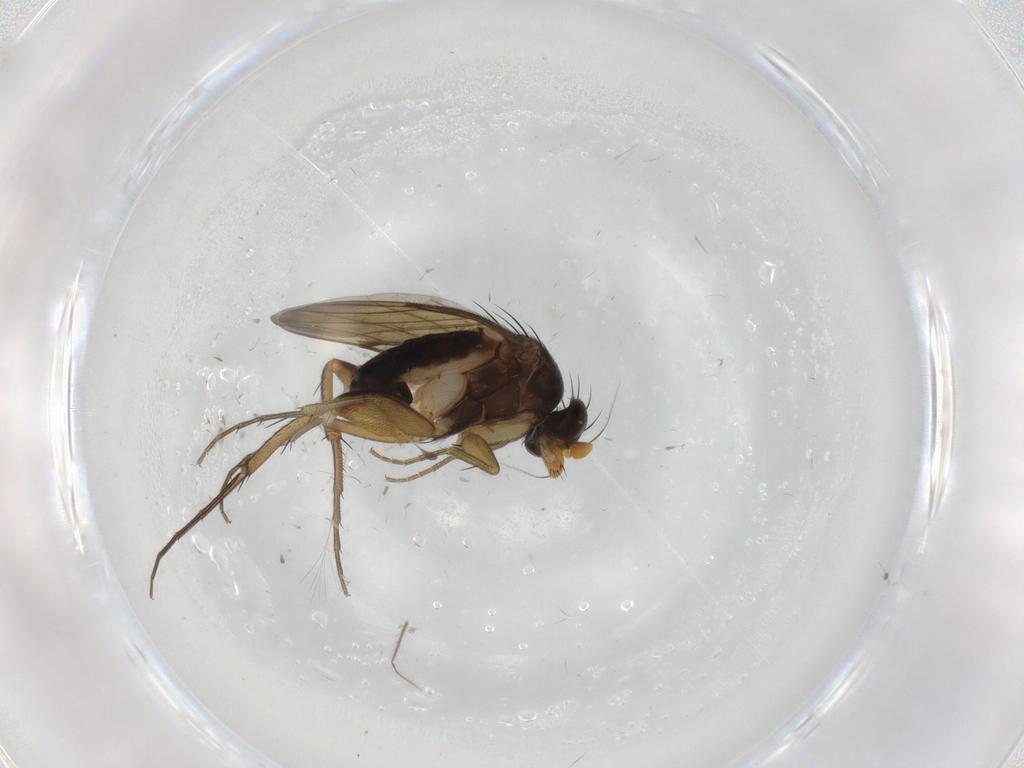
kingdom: Animalia
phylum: Arthropoda
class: Insecta
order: Diptera
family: Phoridae
